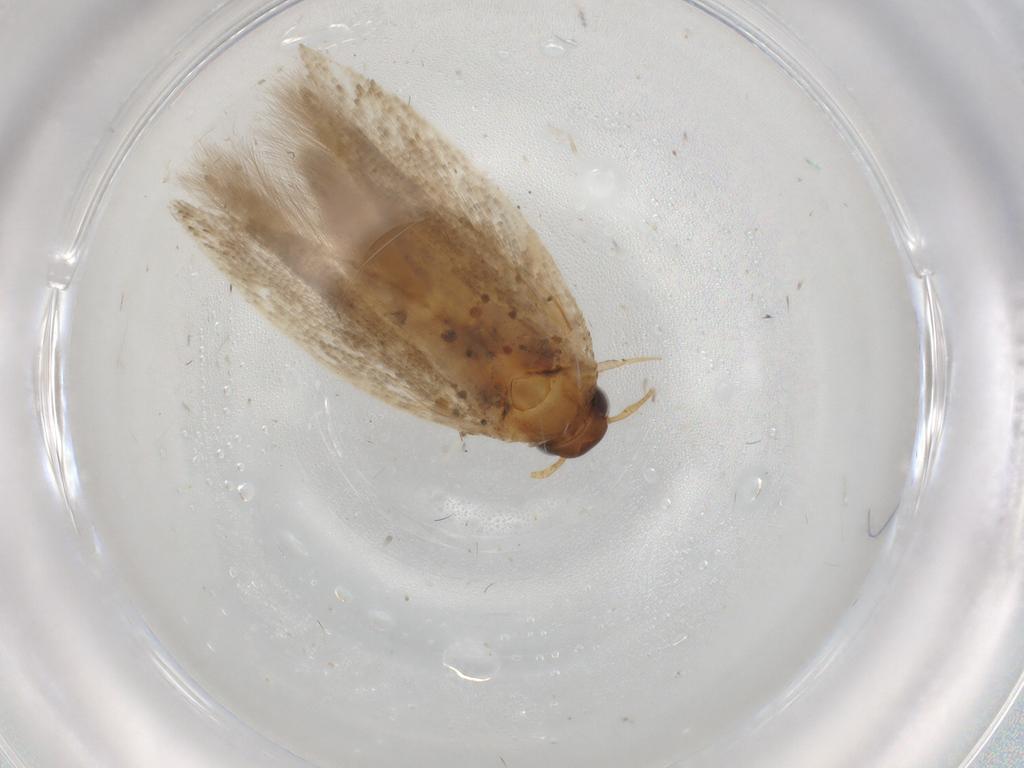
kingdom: Animalia
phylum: Arthropoda
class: Insecta
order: Lepidoptera
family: Gelechiidae
